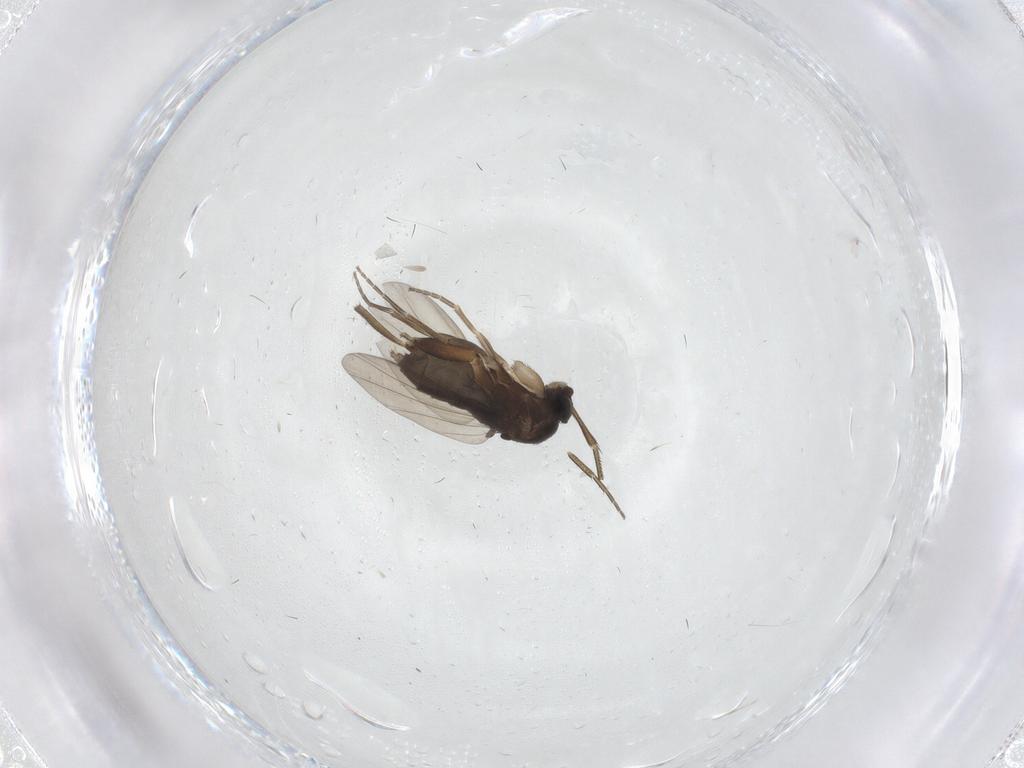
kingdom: Animalia
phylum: Arthropoda
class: Insecta
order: Diptera
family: Phoridae
